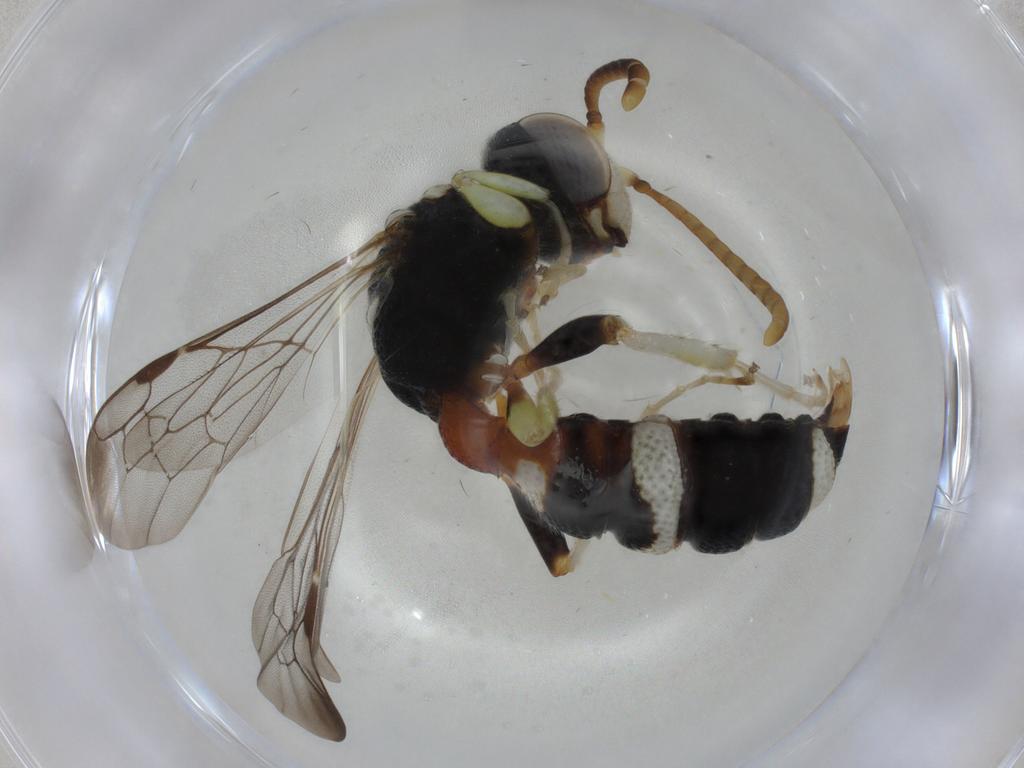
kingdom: Animalia
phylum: Arthropoda
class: Insecta
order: Hymenoptera
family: Crabronidae
